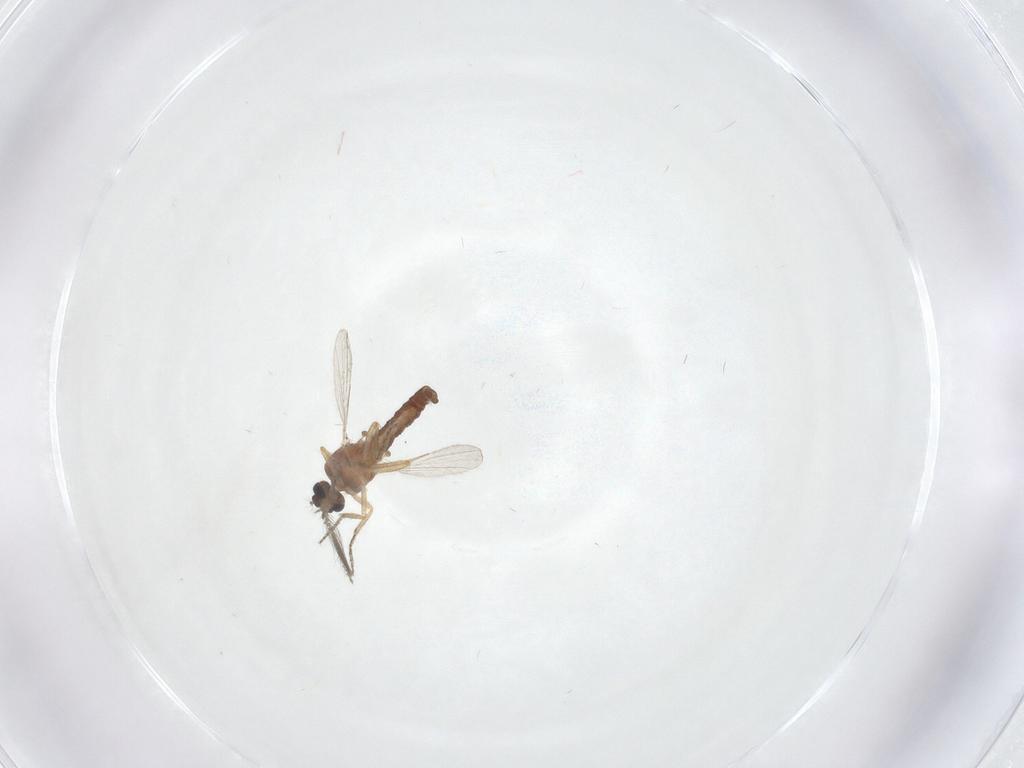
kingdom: Animalia
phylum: Arthropoda
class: Insecta
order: Diptera
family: Ceratopogonidae
